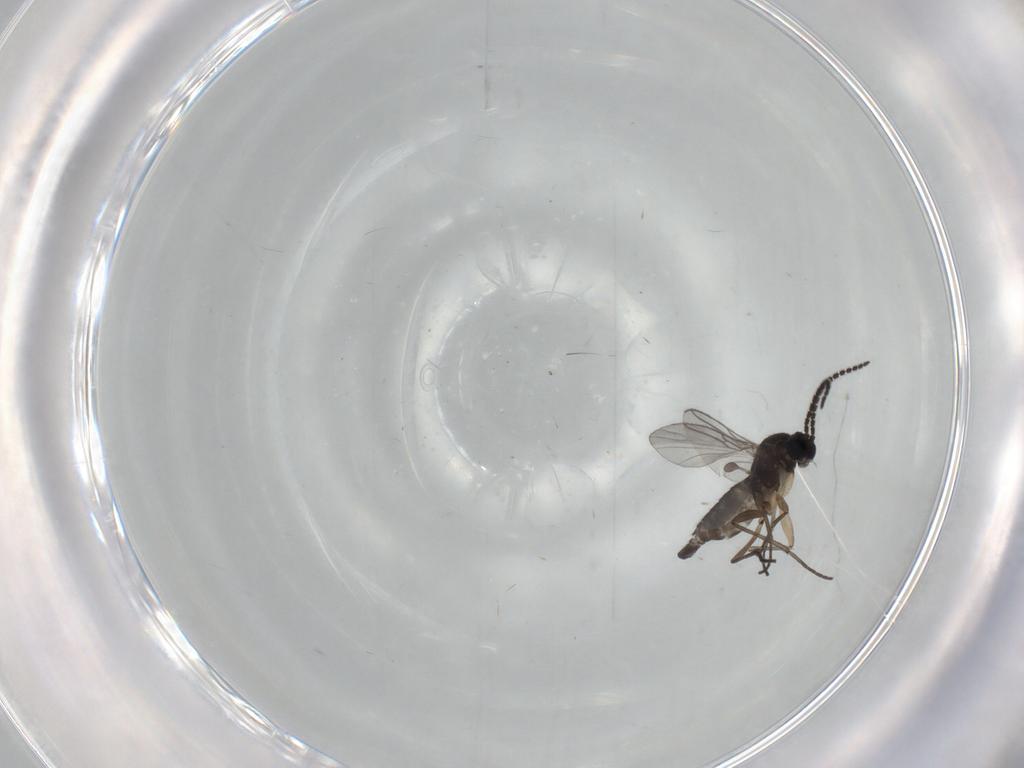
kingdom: Animalia
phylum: Arthropoda
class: Insecta
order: Diptera
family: Sciaridae
